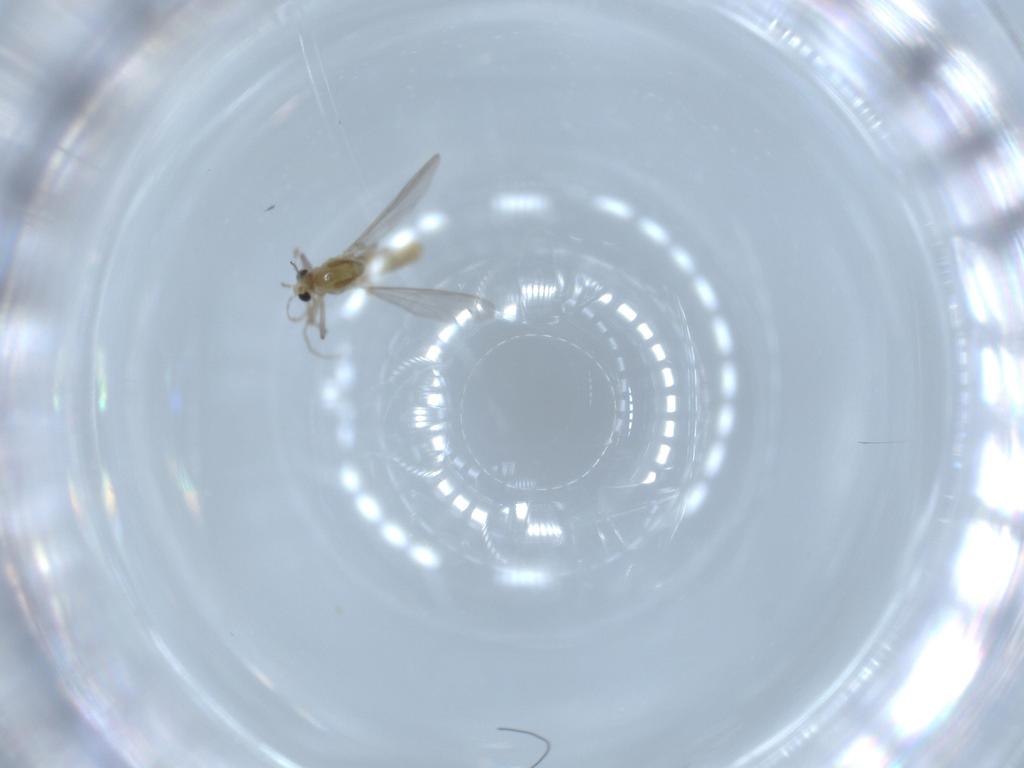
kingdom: Animalia
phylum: Arthropoda
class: Insecta
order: Diptera
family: Chironomidae
